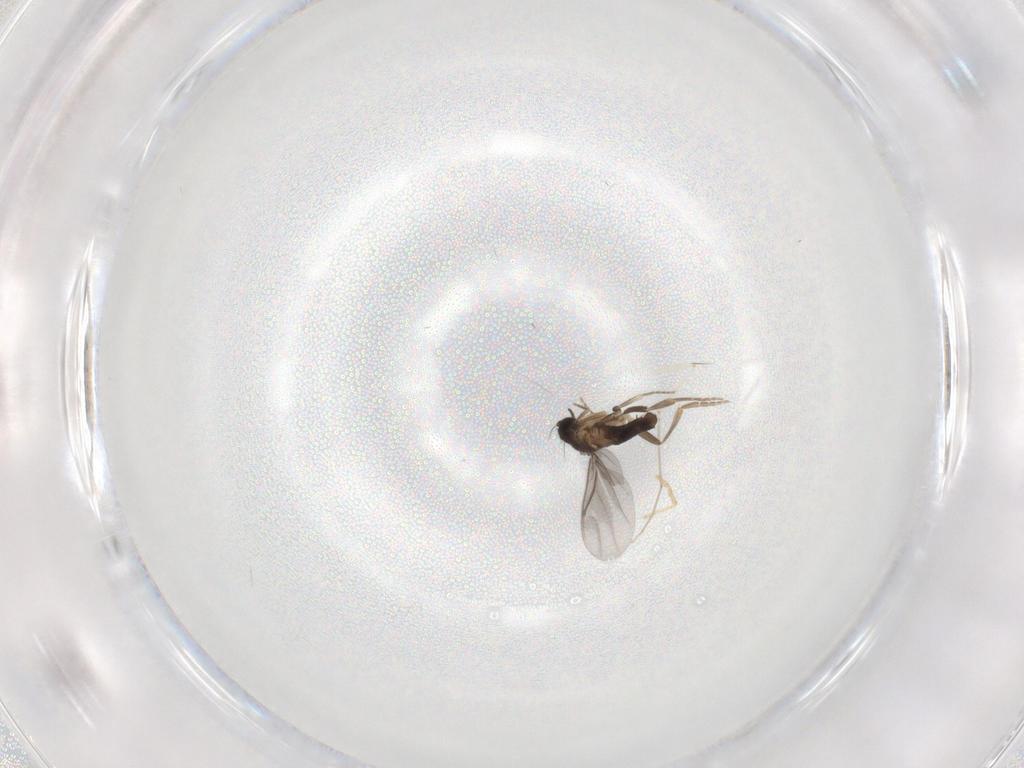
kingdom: Animalia
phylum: Arthropoda
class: Insecta
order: Diptera
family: Cecidomyiidae
